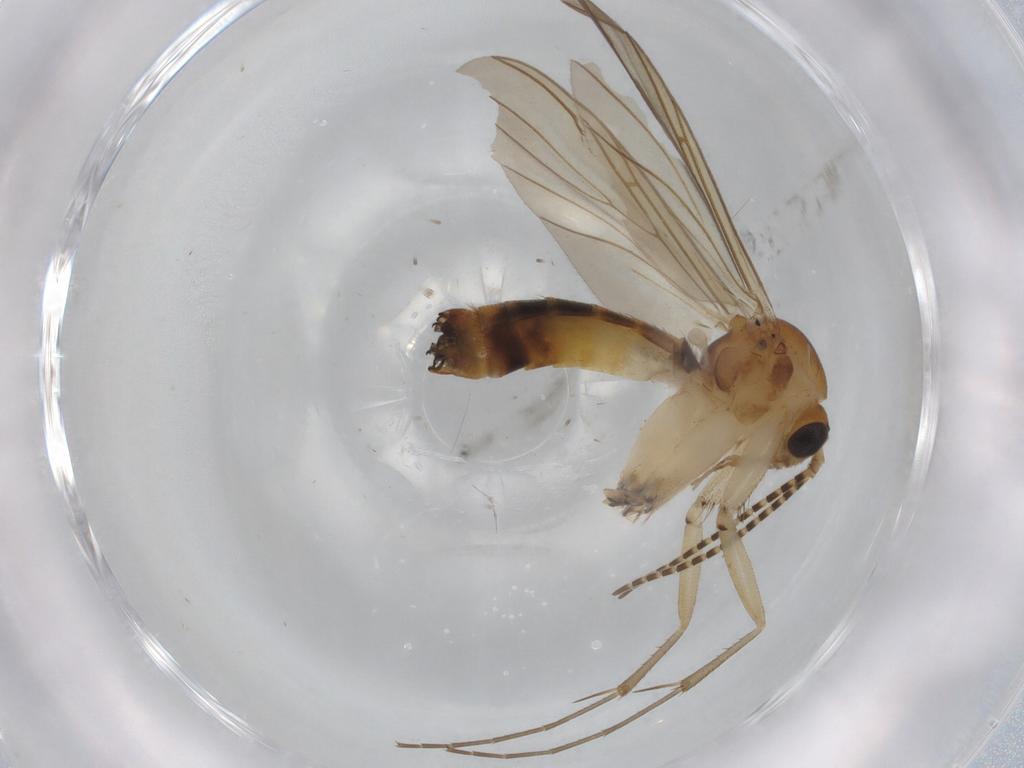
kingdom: Animalia
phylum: Arthropoda
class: Insecta
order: Diptera
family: Mycetophilidae
